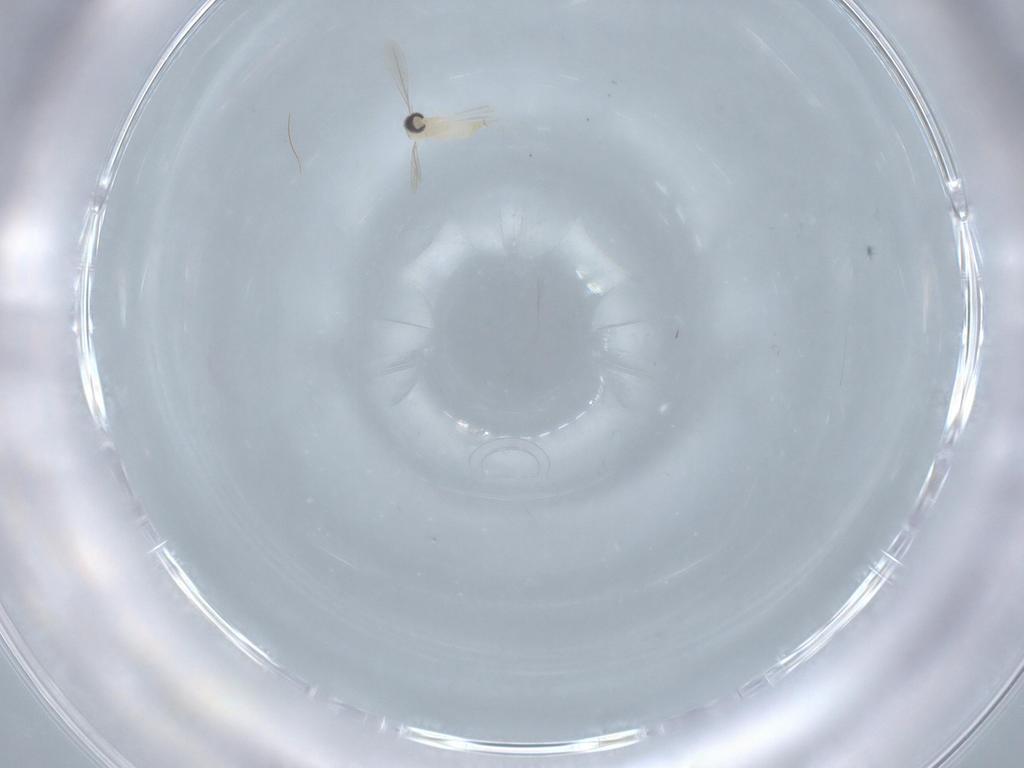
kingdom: Animalia
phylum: Arthropoda
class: Insecta
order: Diptera
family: Cecidomyiidae
